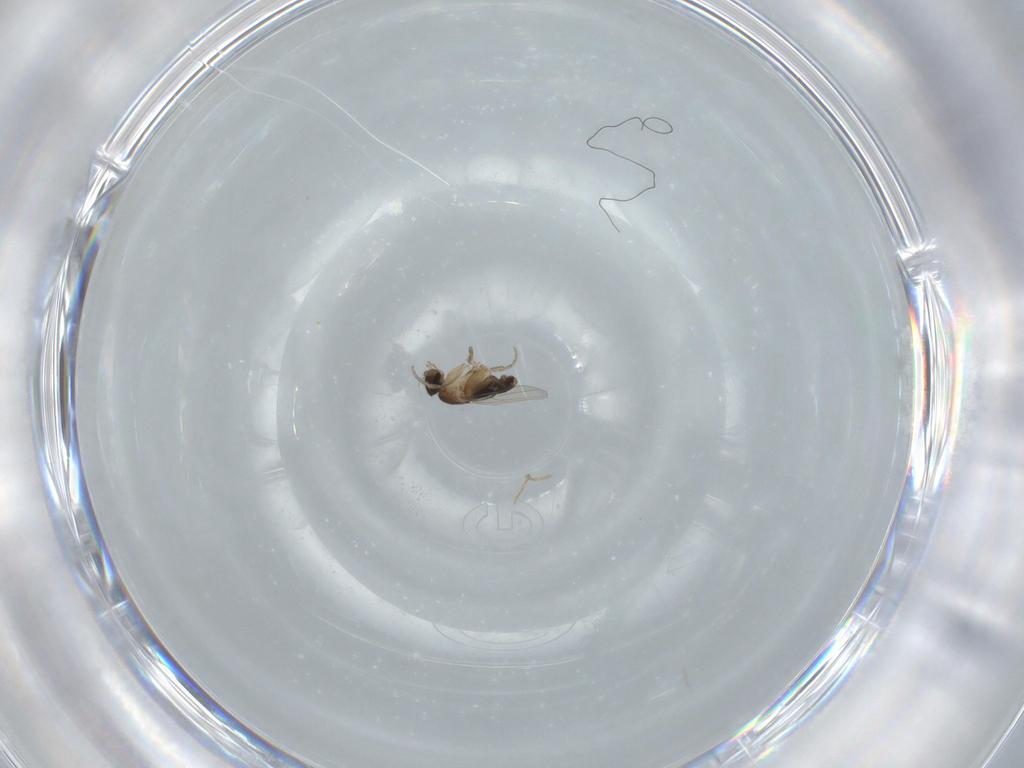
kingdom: Animalia
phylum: Arthropoda
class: Insecta
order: Diptera
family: Phoridae
